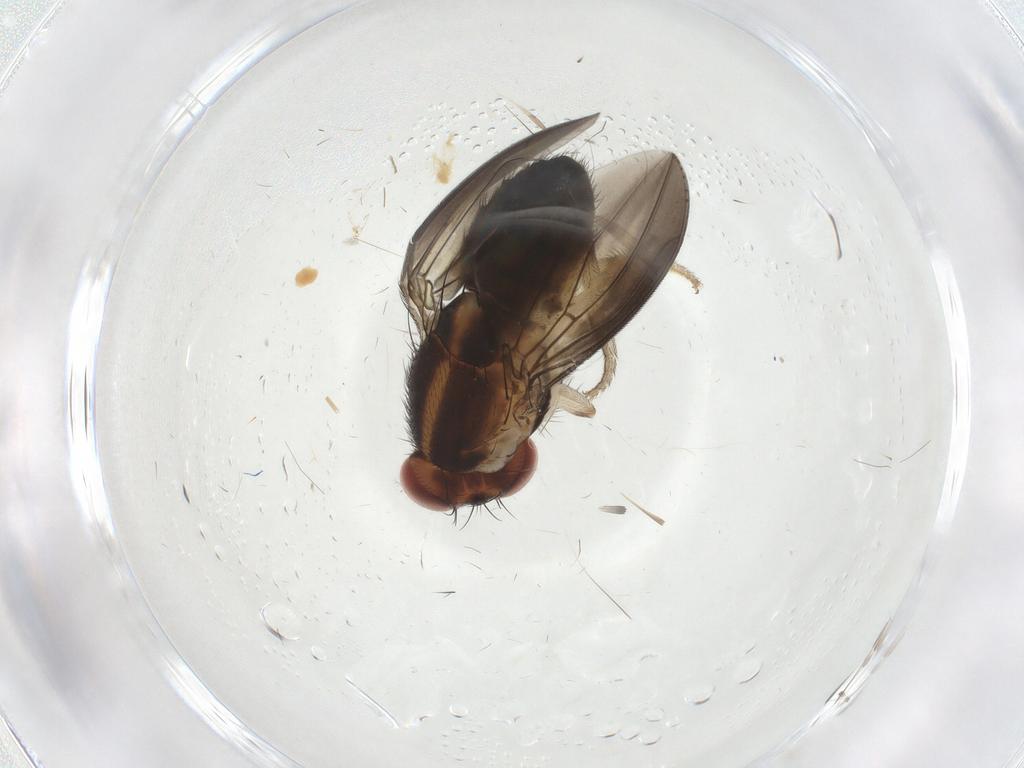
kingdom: Animalia
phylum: Arthropoda
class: Insecta
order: Diptera
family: Drosophilidae
